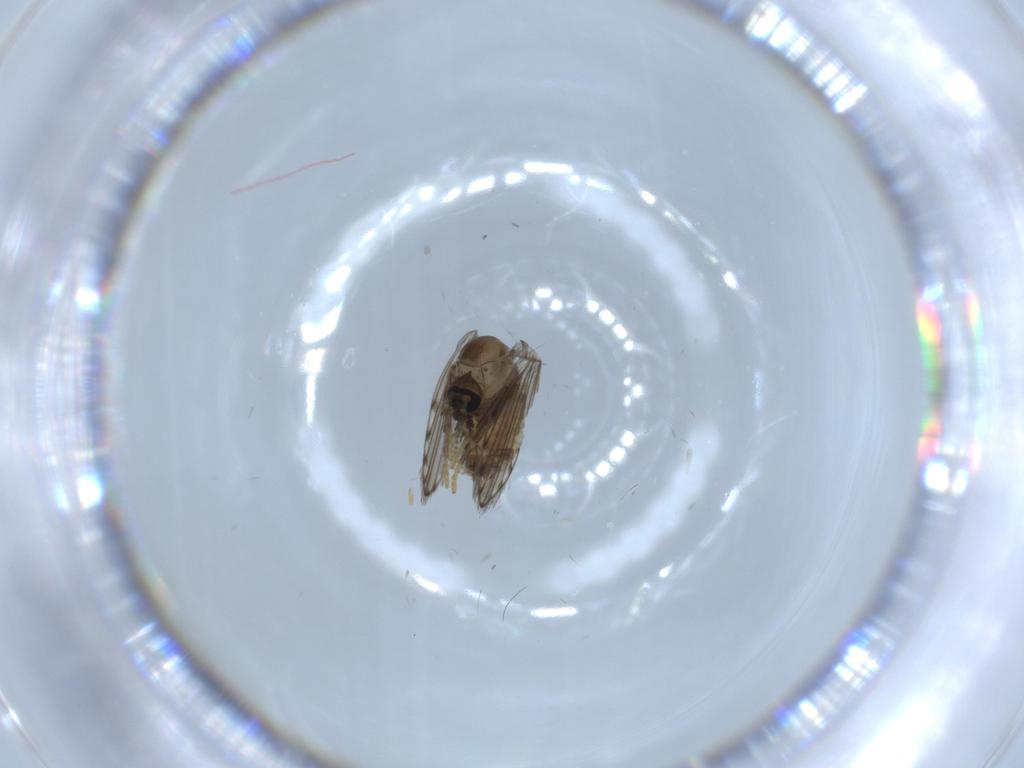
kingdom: Animalia
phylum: Arthropoda
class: Insecta
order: Diptera
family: Psychodidae
